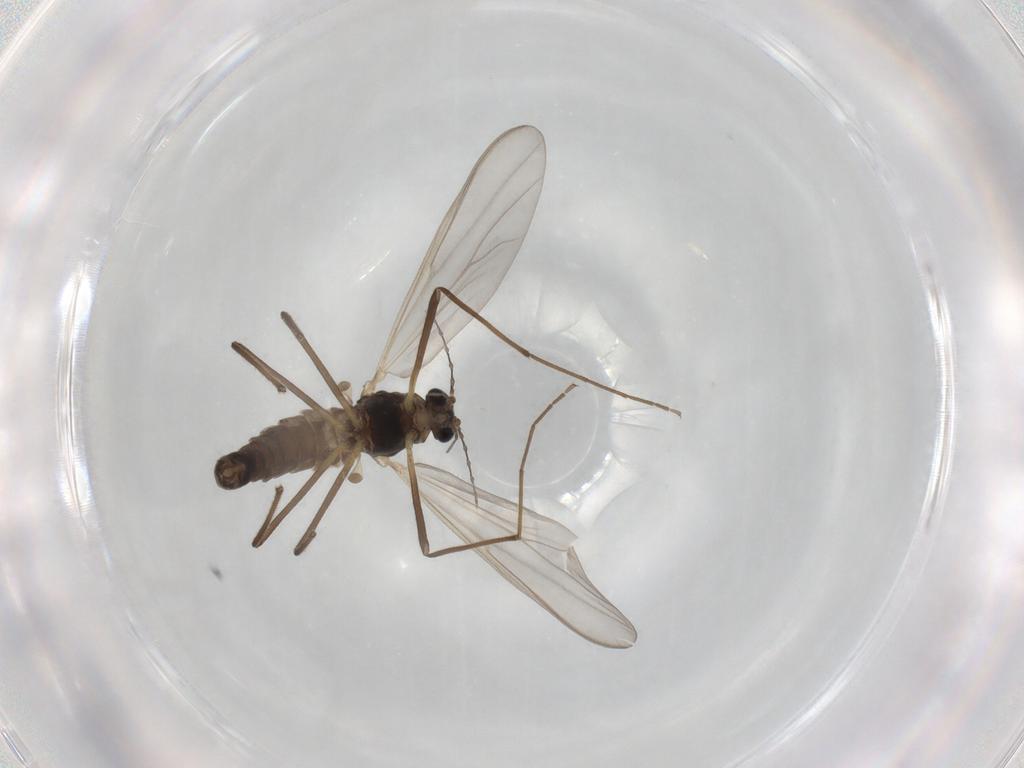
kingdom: Animalia
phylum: Arthropoda
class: Insecta
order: Diptera
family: Chironomidae
